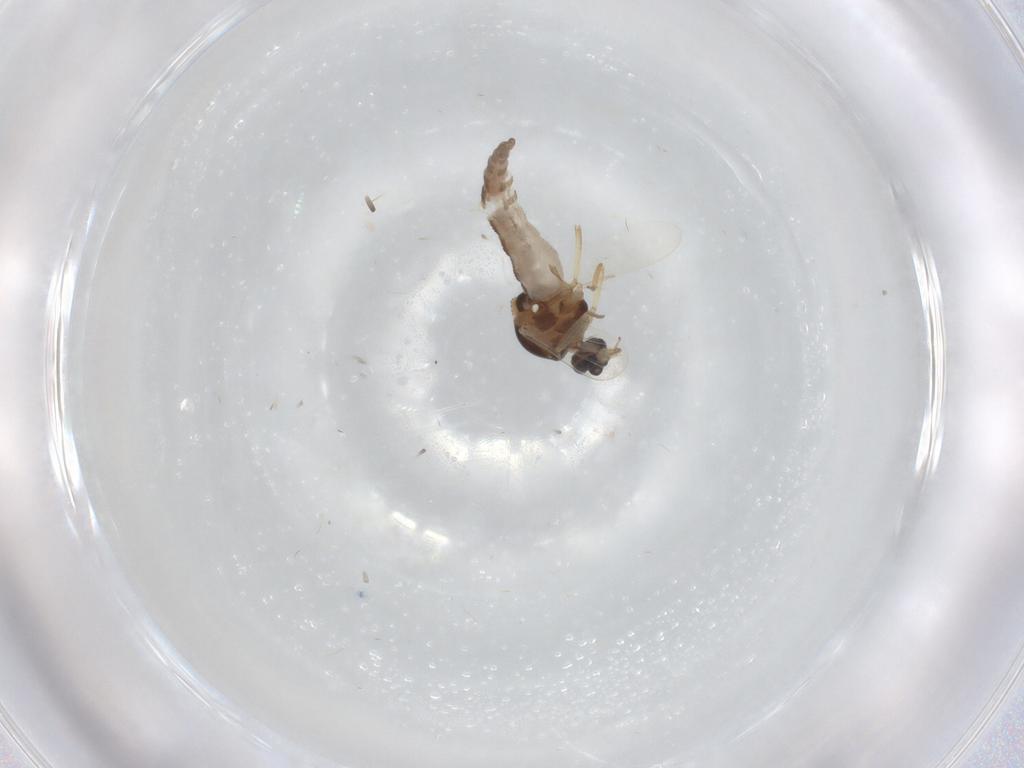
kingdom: Animalia
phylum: Arthropoda
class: Insecta
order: Diptera
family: Ceratopogonidae
